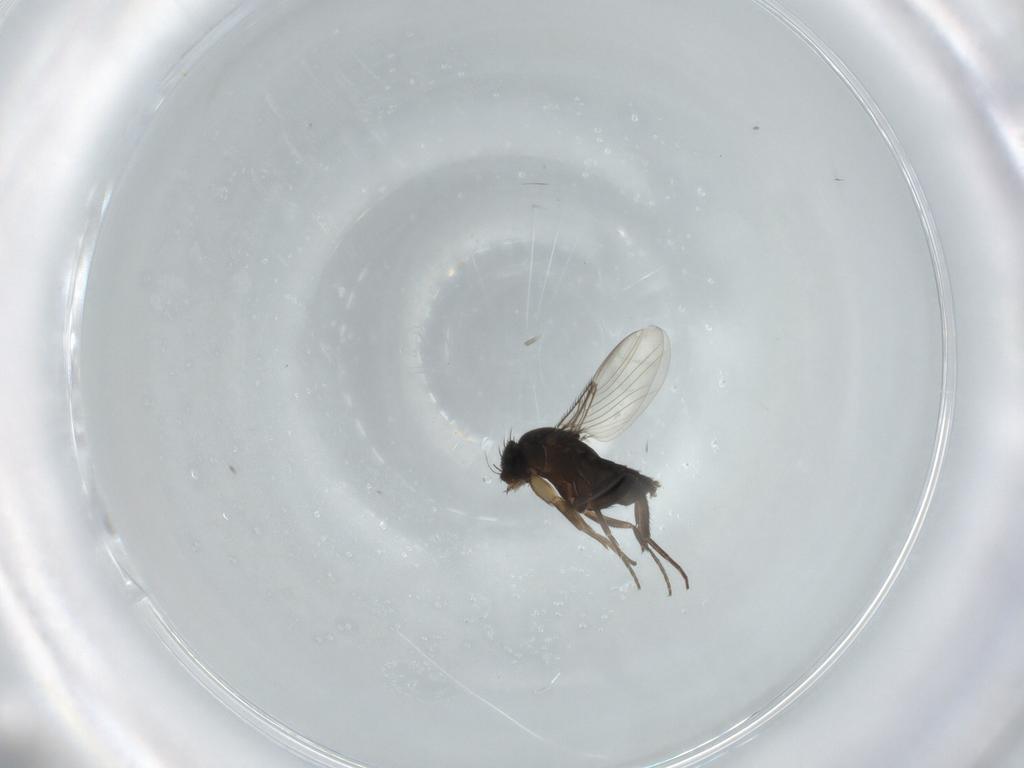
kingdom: Animalia
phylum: Arthropoda
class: Insecta
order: Diptera
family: Phoridae
